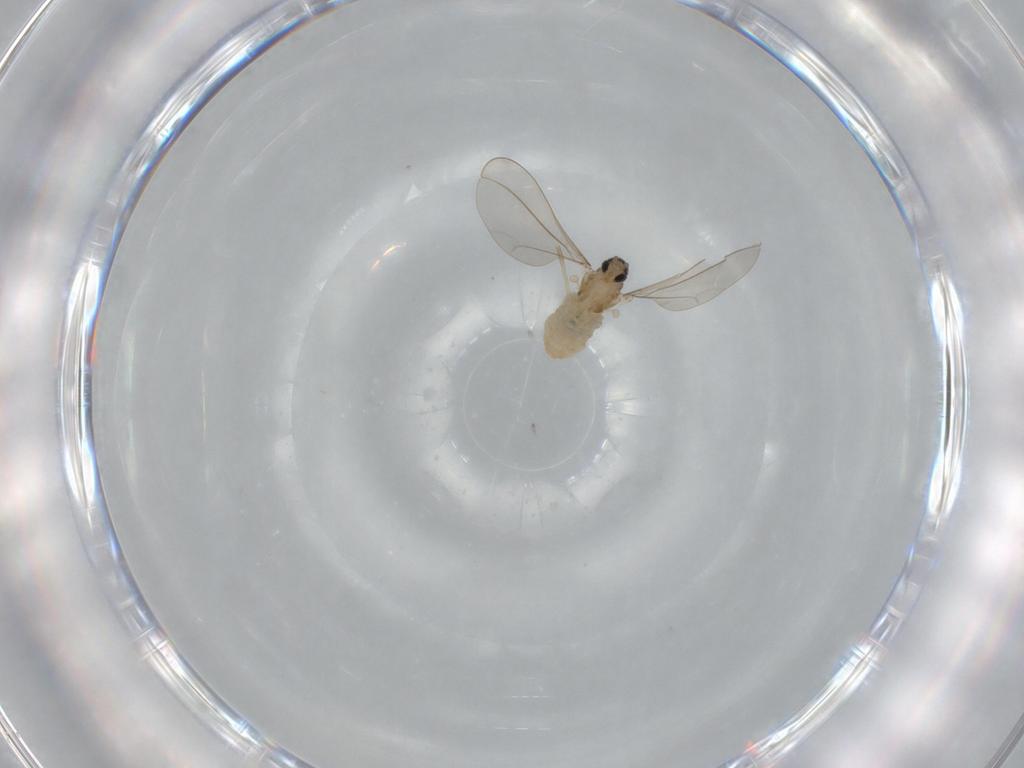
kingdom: Animalia
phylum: Arthropoda
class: Insecta
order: Diptera
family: Cecidomyiidae
